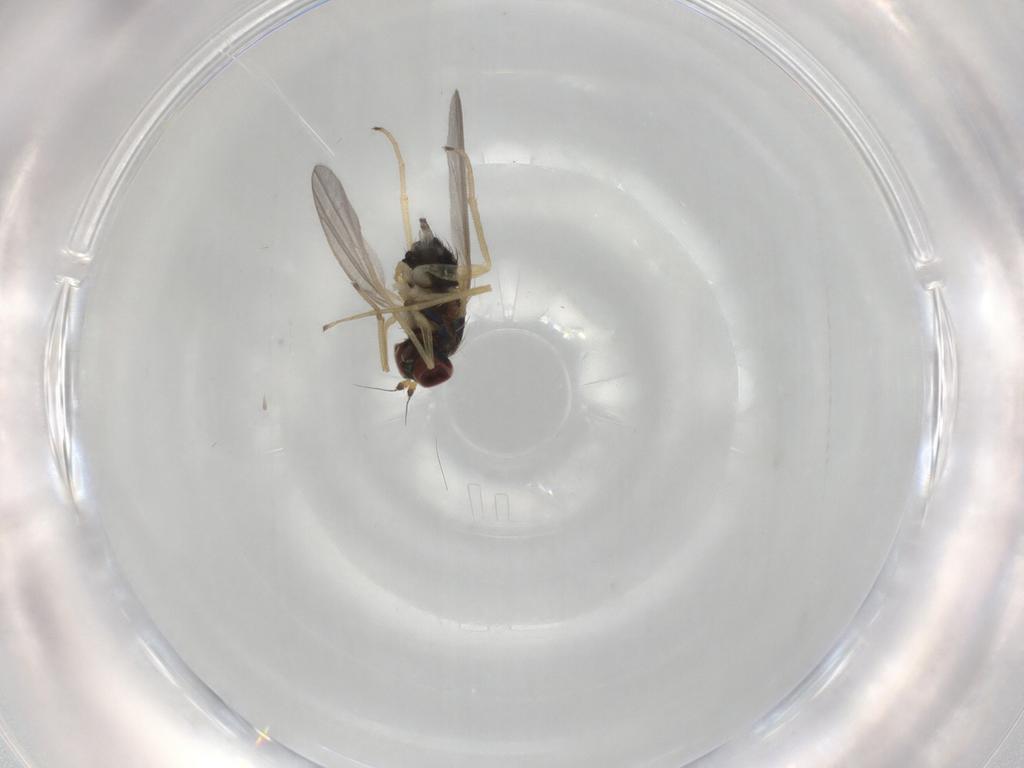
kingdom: Animalia
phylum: Arthropoda
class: Insecta
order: Diptera
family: Dolichopodidae
